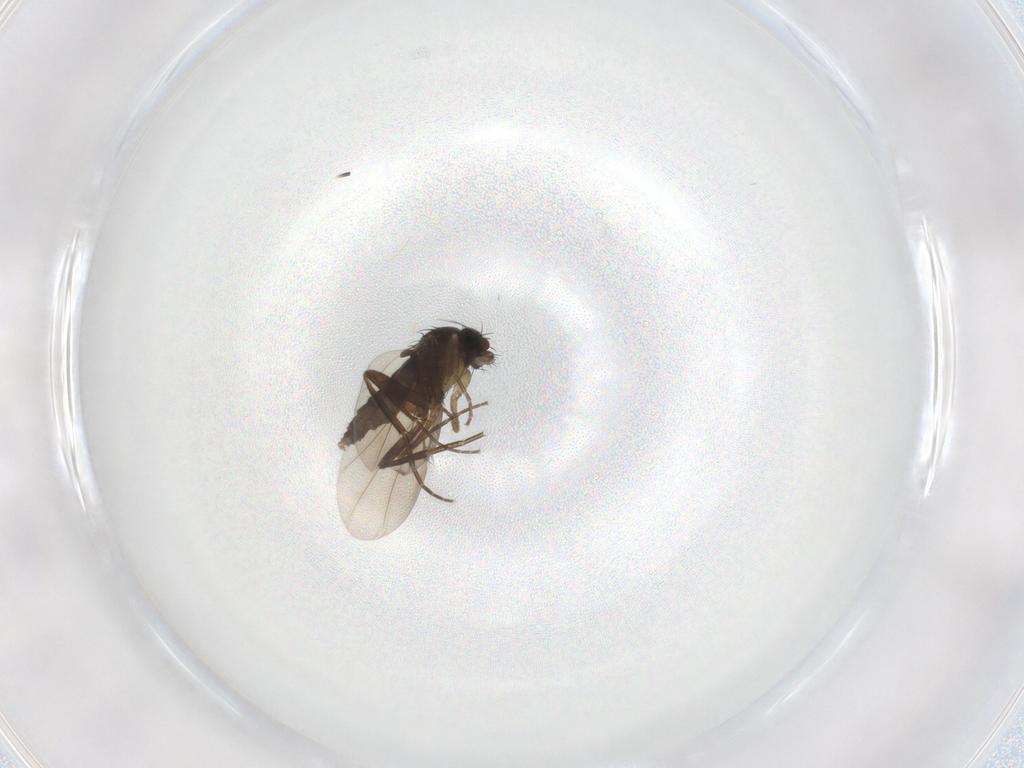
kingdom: Animalia
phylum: Arthropoda
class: Insecta
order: Diptera
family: Phoridae
